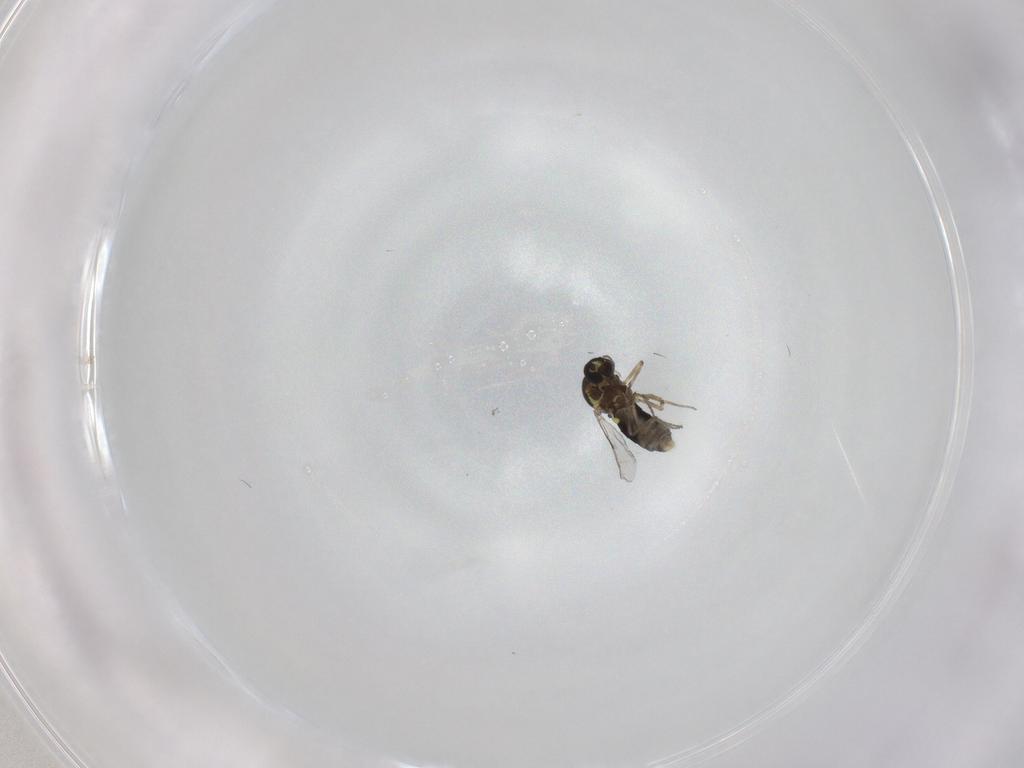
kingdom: Animalia
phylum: Arthropoda
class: Insecta
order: Diptera
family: Ceratopogonidae
